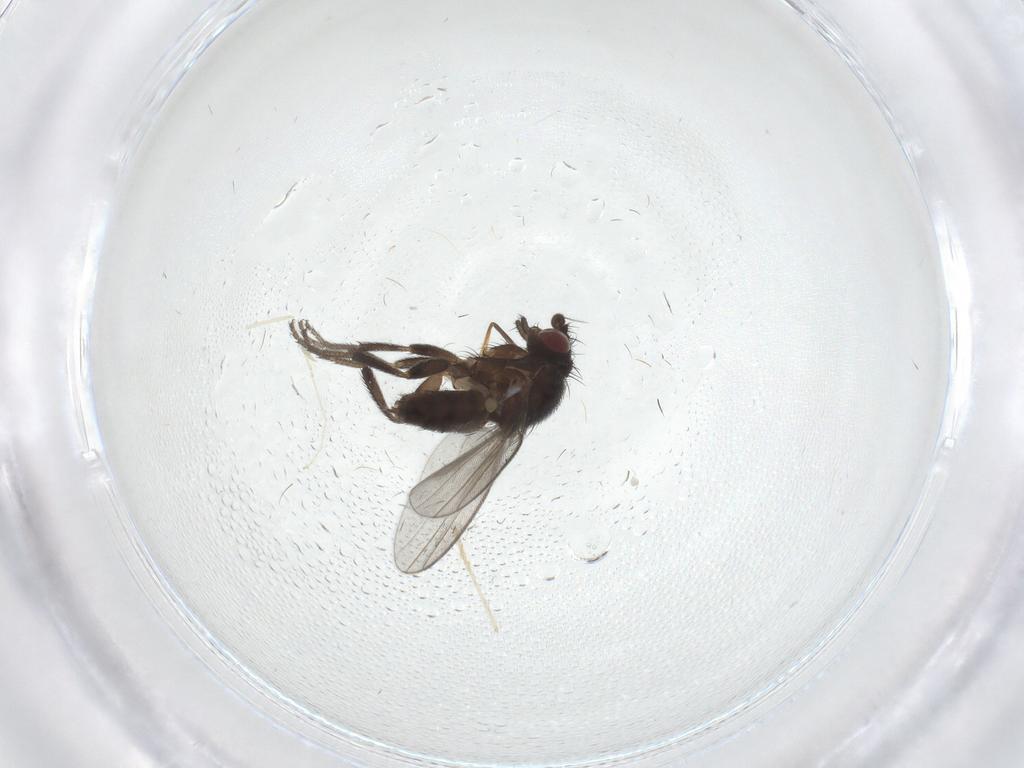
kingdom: Animalia
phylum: Arthropoda
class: Insecta
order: Diptera
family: Milichiidae
